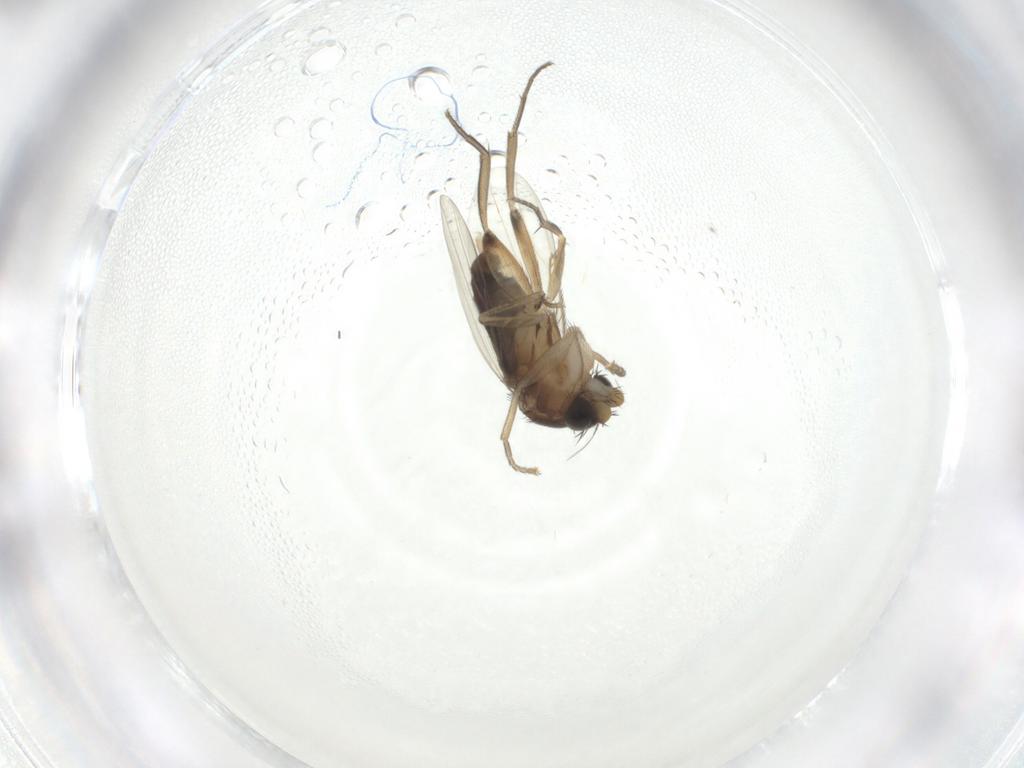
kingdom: Animalia
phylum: Arthropoda
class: Insecta
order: Diptera
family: Phoridae
